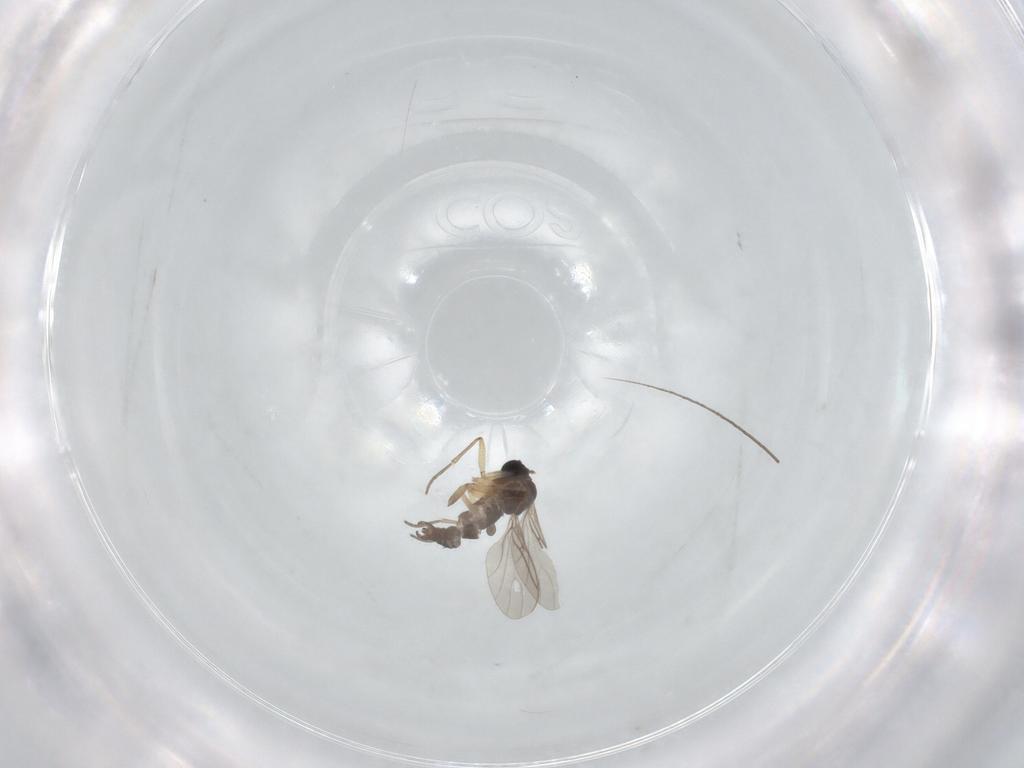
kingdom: Animalia
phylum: Arthropoda
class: Insecta
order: Diptera
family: Sciaridae
